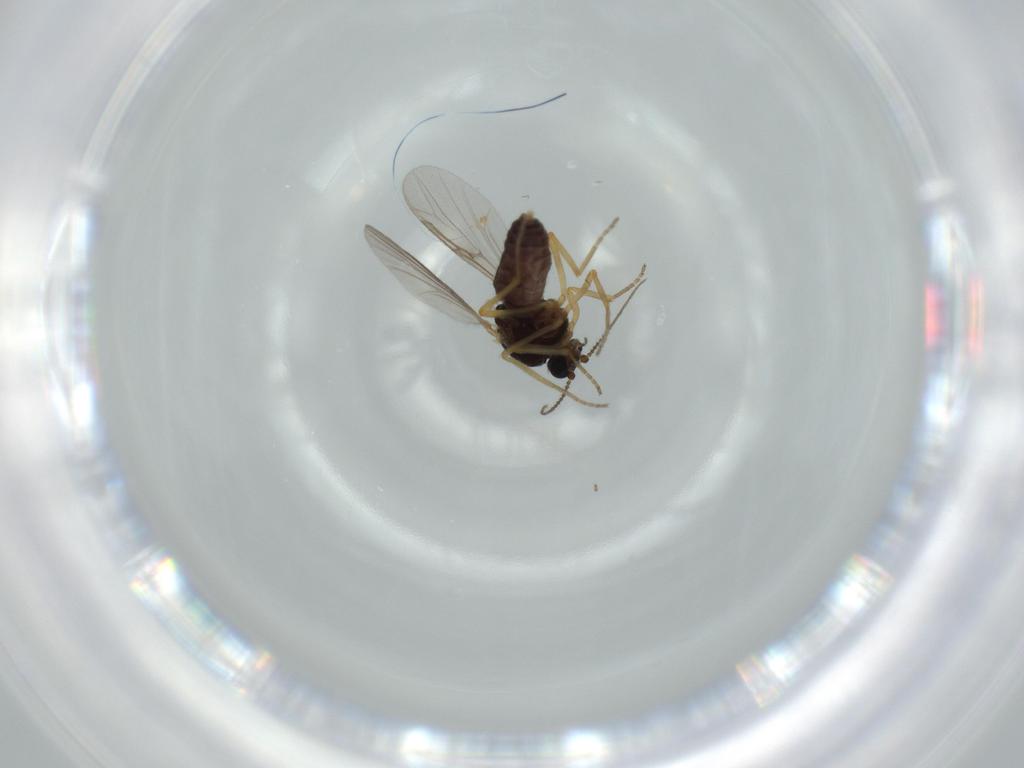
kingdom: Animalia
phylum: Arthropoda
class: Insecta
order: Diptera
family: Ceratopogonidae
